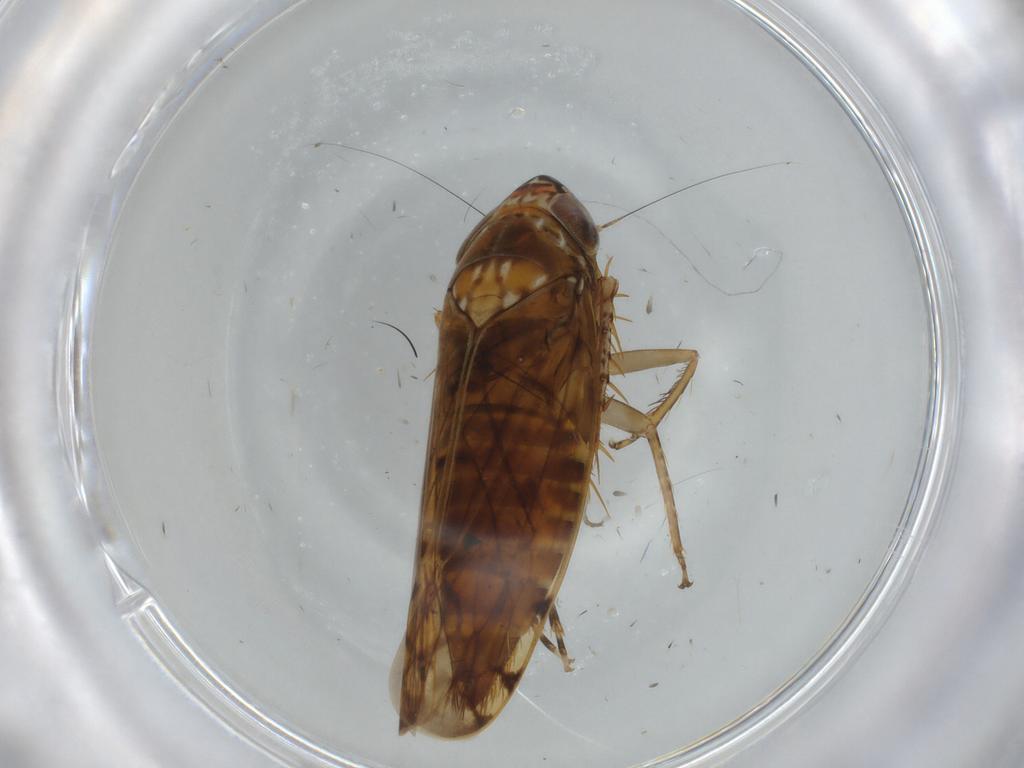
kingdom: Animalia
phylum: Arthropoda
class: Insecta
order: Hemiptera
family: Cicadellidae
